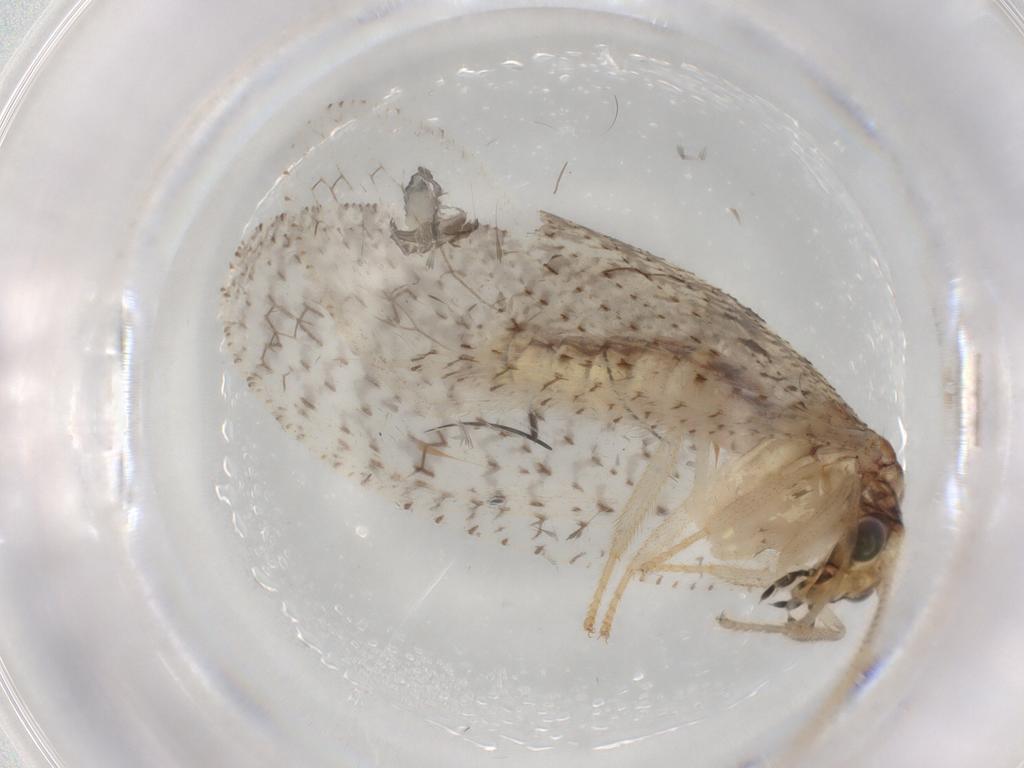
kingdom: Animalia
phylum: Arthropoda
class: Insecta
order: Neuroptera
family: Hemerobiidae
